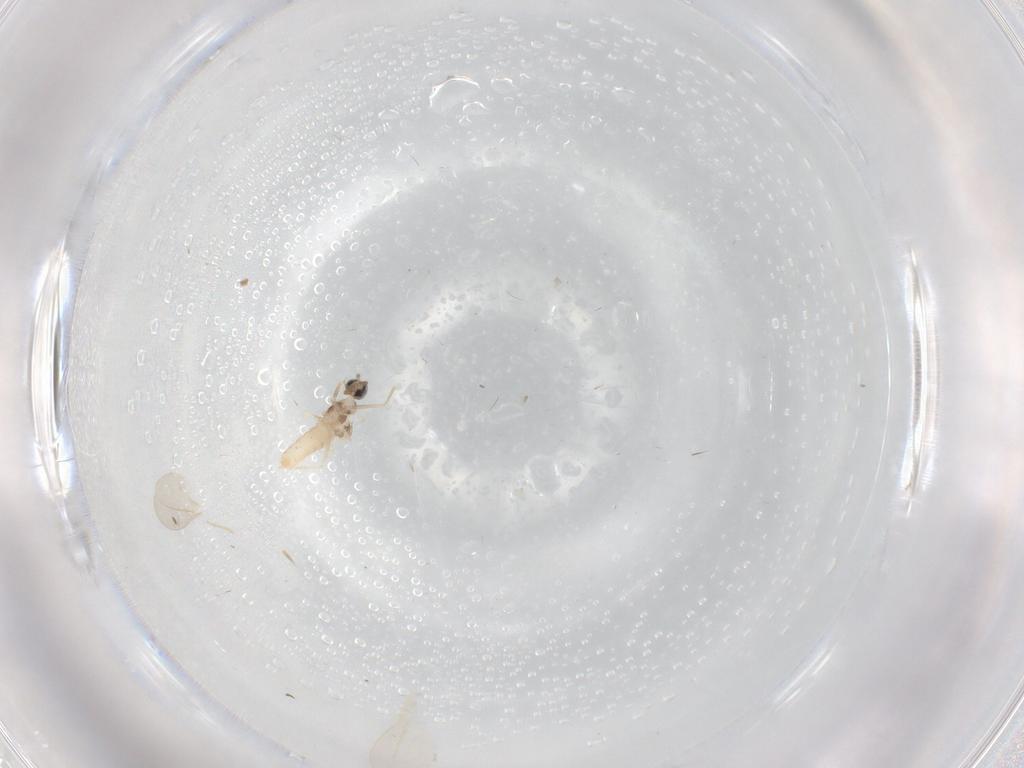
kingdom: Animalia
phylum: Arthropoda
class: Insecta
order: Diptera
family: Cecidomyiidae
